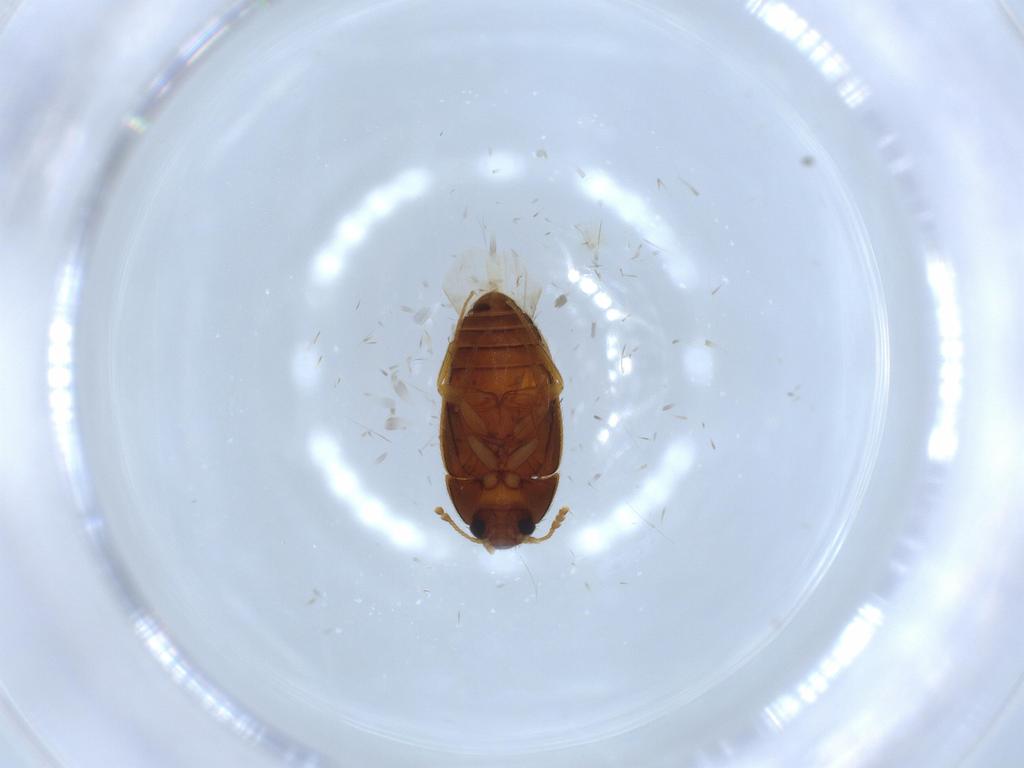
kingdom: Animalia
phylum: Arthropoda
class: Insecta
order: Coleoptera
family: Mycetophagidae
